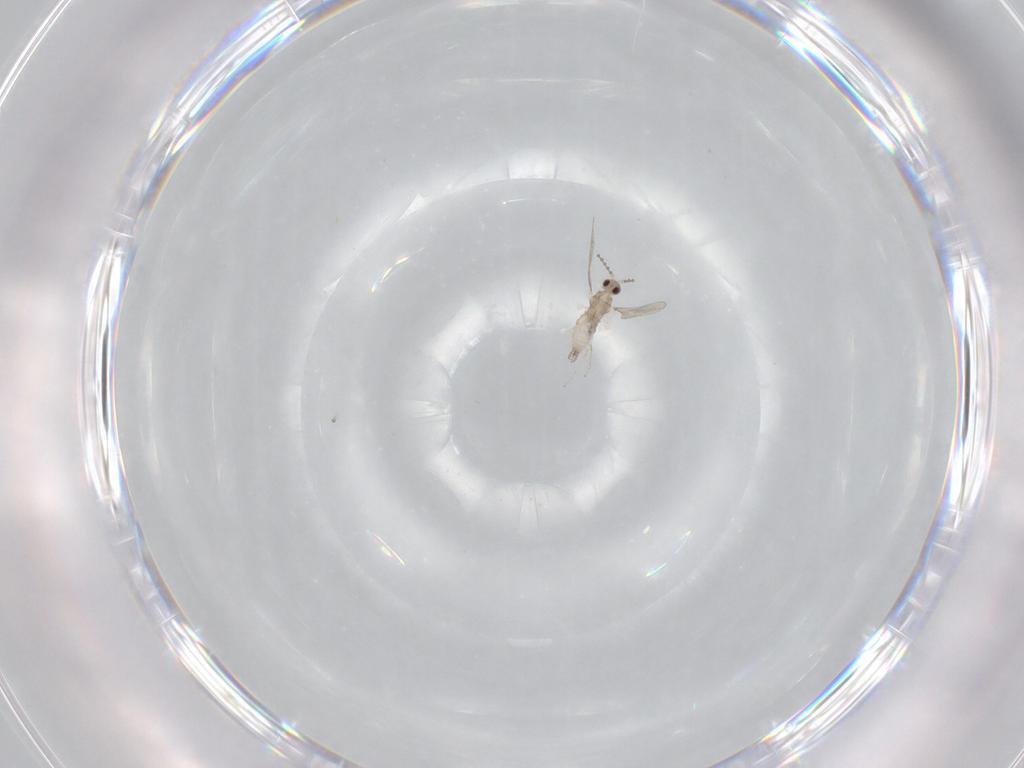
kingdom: Animalia
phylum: Arthropoda
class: Insecta
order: Diptera
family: Cecidomyiidae
